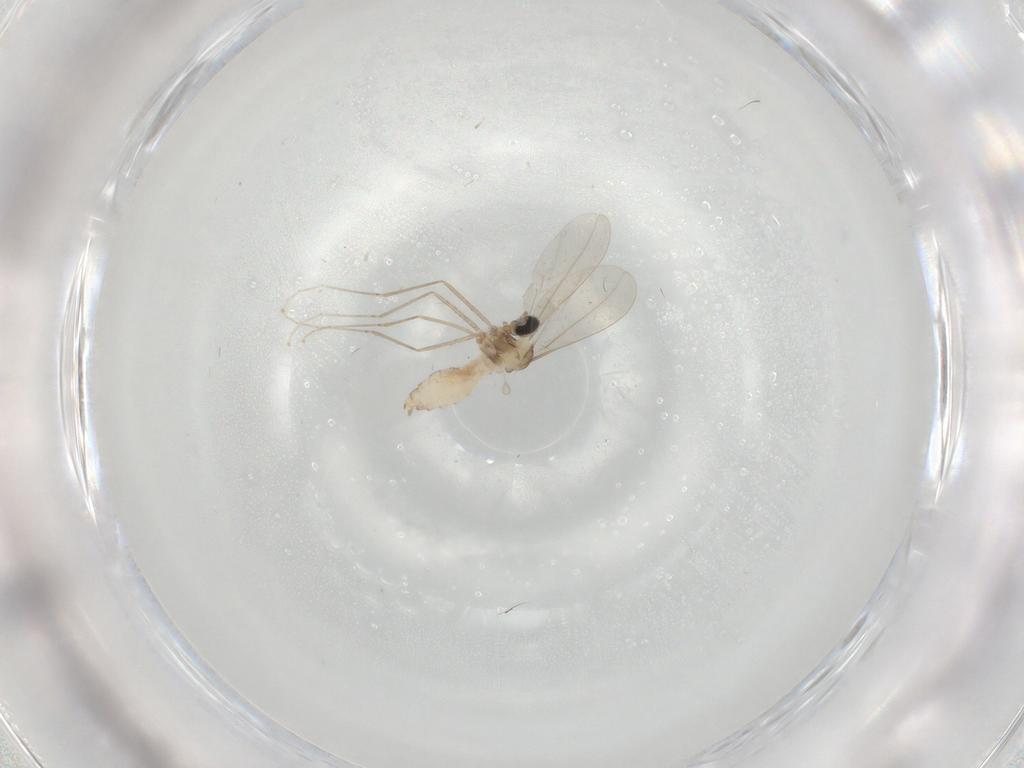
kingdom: Animalia
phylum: Arthropoda
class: Insecta
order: Diptera
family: Cecidomyiidae
